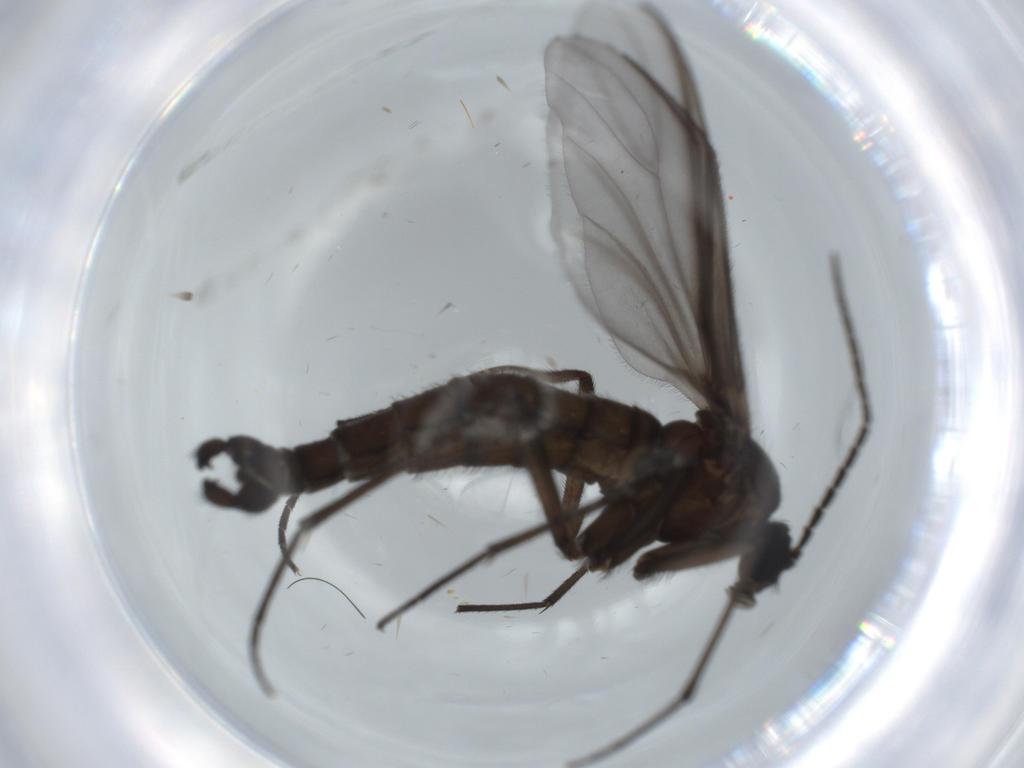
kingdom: Animalia
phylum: Arthropoda
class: Insecta
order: Diptera
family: Sciaridae
